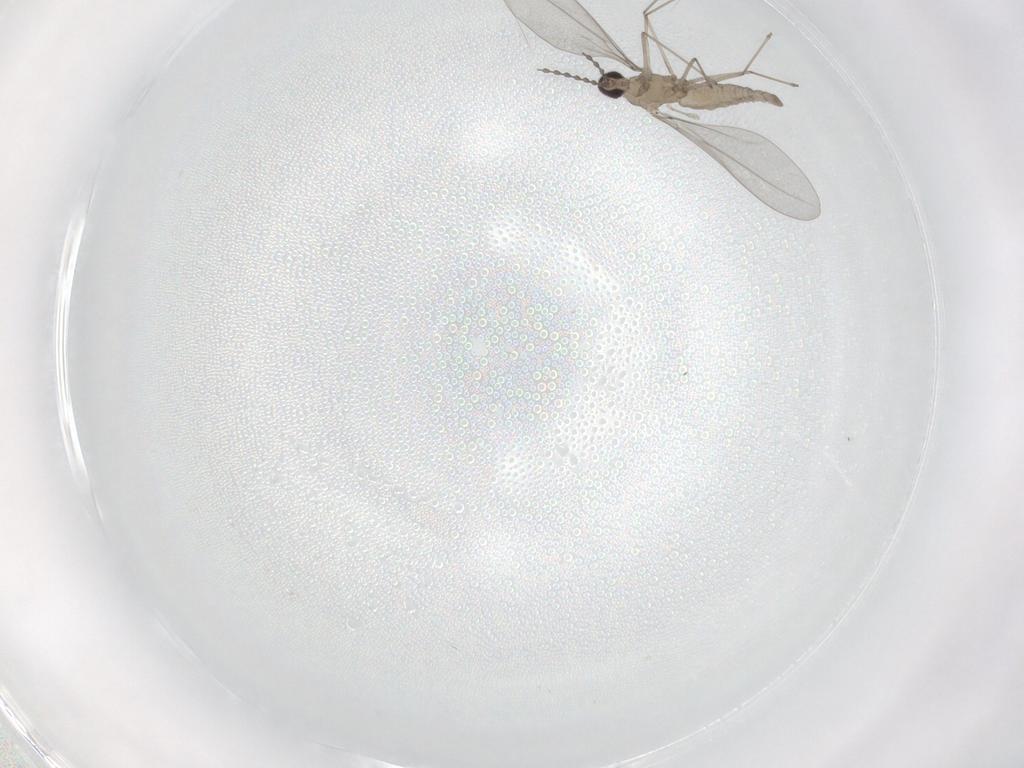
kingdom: Animalia
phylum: Arthropoda
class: Insecta
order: Diptera
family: Cecidomyiidae
